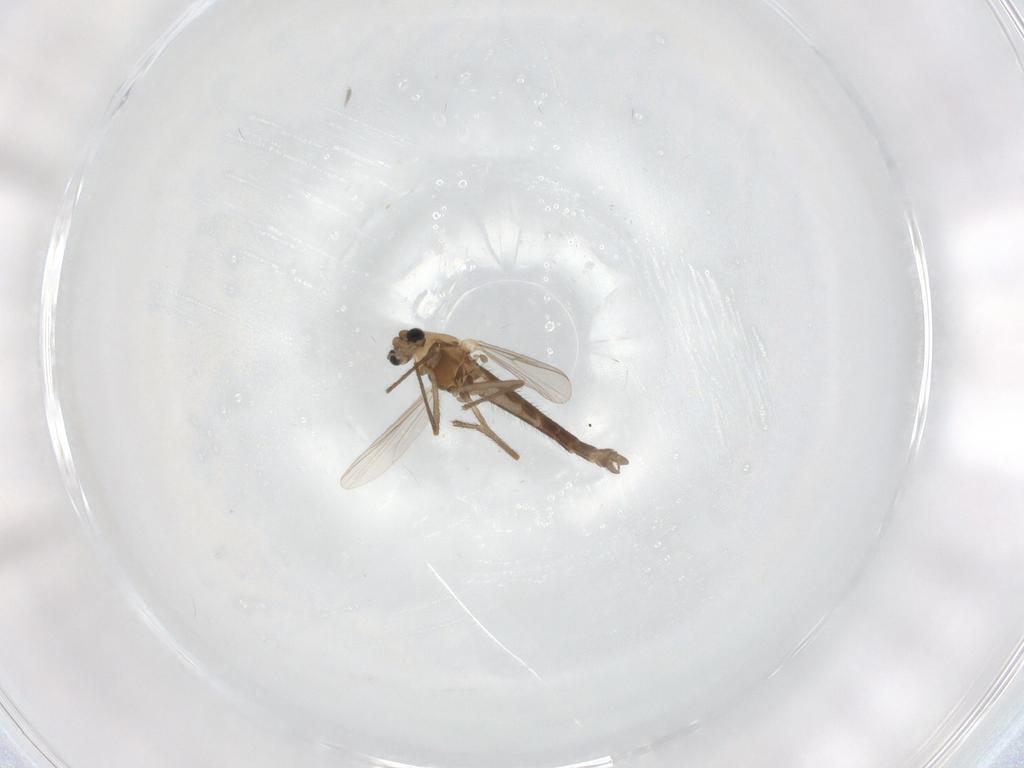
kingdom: Animalia
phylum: Arthropoda
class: Insecta
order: Diptera
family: Chironomidae
